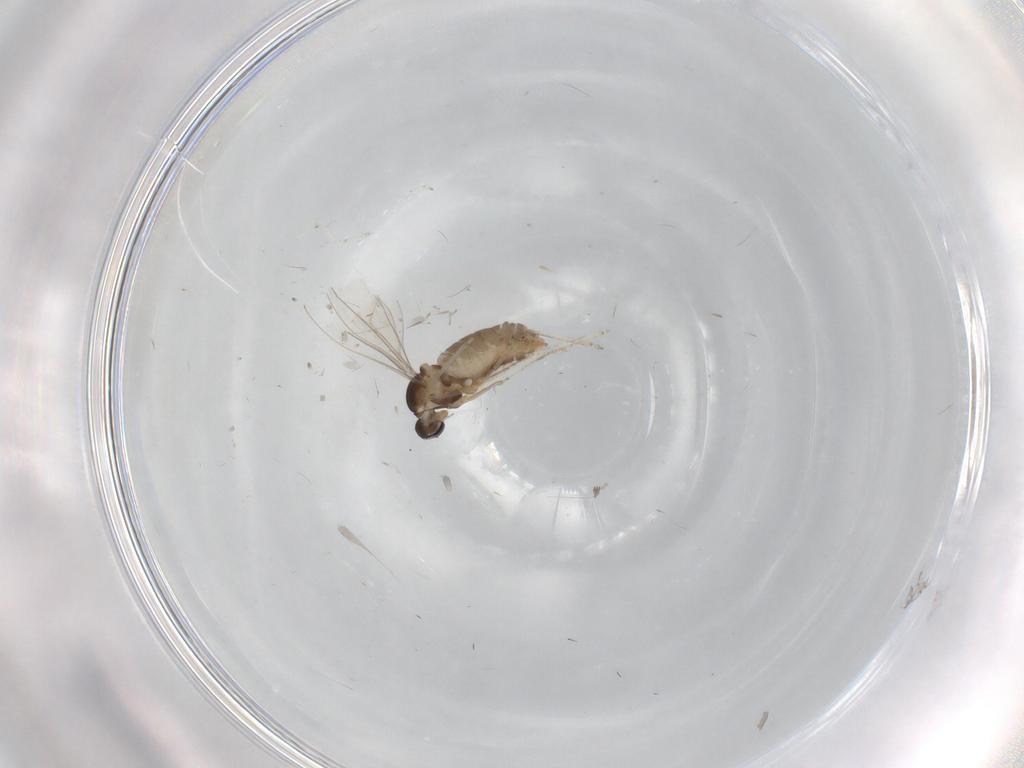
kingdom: Animalia
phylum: Arthropoda
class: Insecta
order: Diptera
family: Cecidomyiidae
